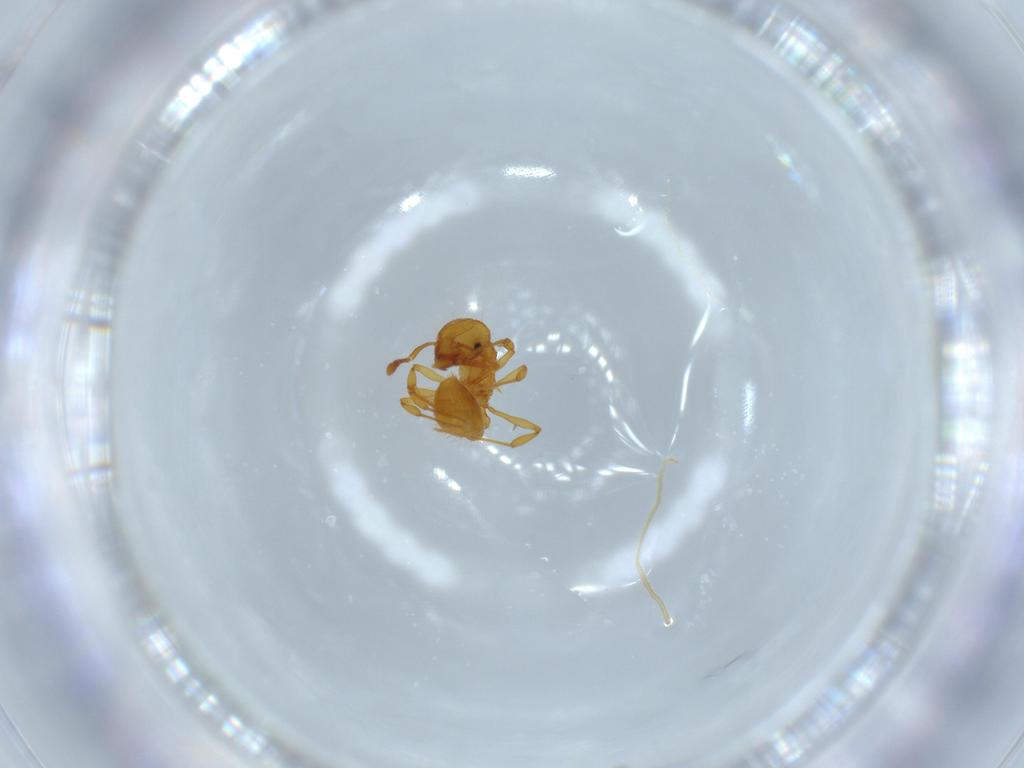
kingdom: Animalia
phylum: Arthropoda
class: Insecta
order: Hymenoptera
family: Formicidae
